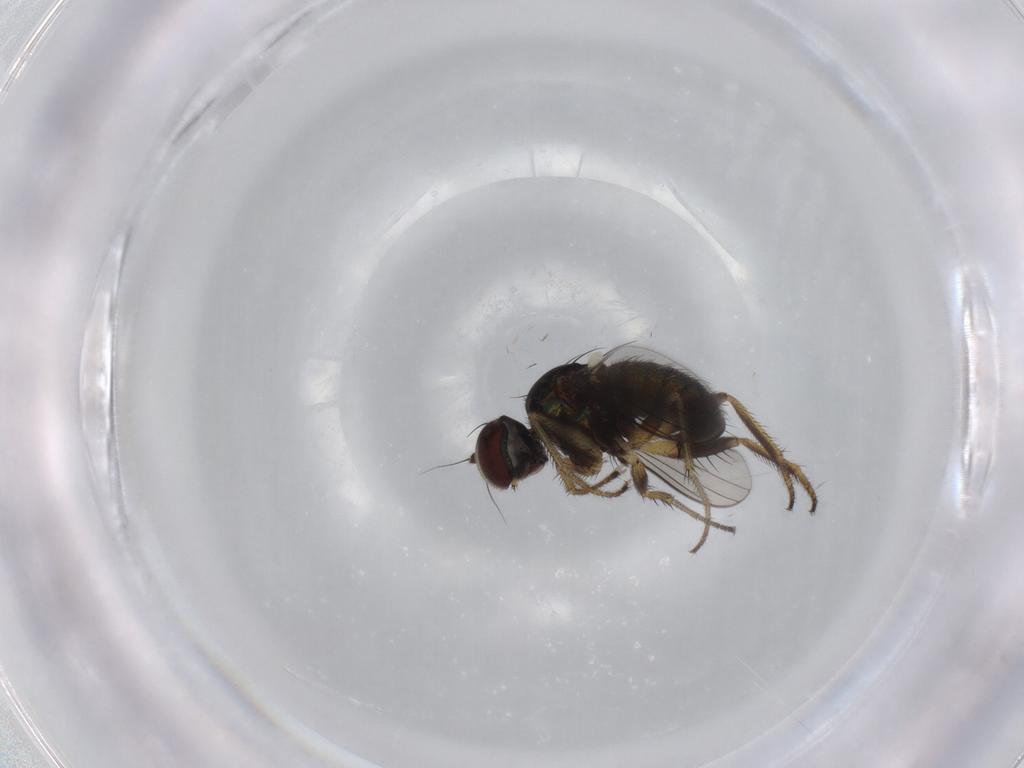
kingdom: Animalia
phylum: Arthropoda
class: Insecta
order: Diptera
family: Dolichopodidae
